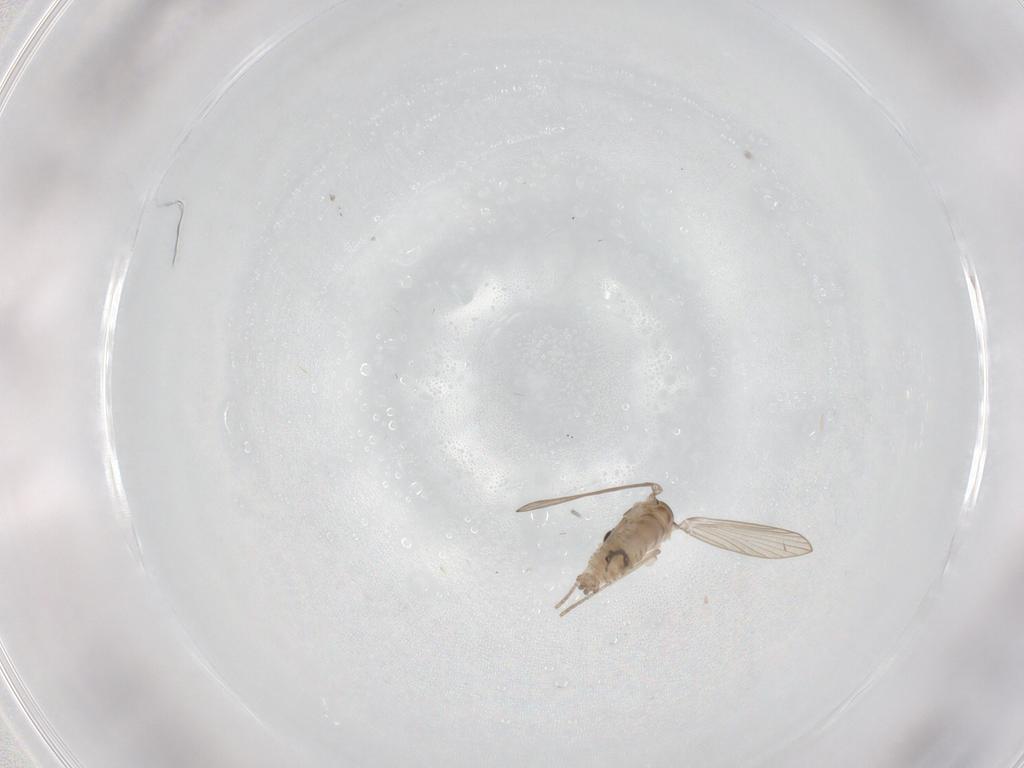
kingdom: Animalia
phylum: Arthropoda
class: Insecta
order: Diptera
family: Psychodidae
